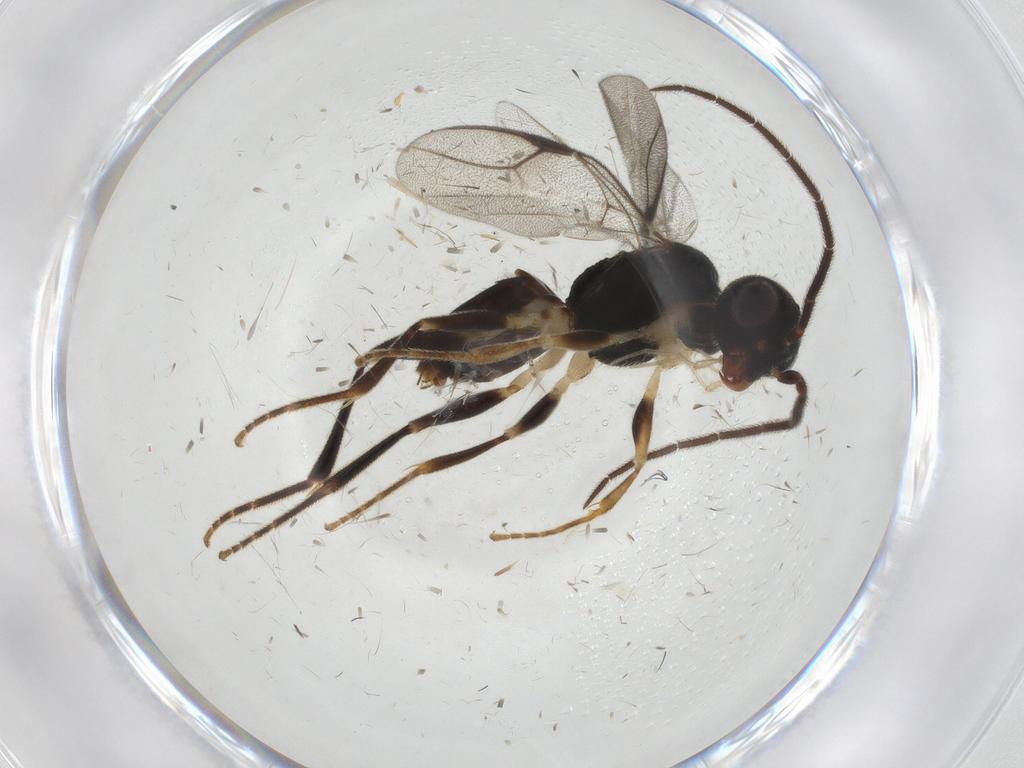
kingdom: Animalia
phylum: Arthropoda
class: Insecta
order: Hymenoptera
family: Dryinidae
